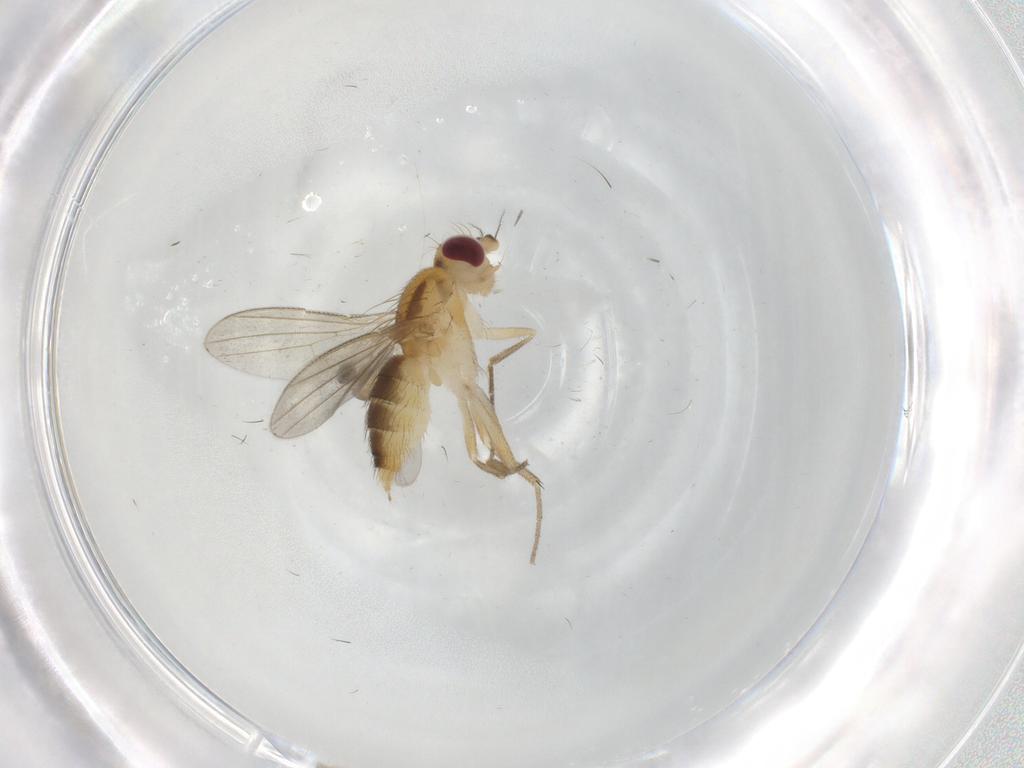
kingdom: Animalia
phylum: Arthropoda
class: Insecta
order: Diptera
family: Clusiidae
